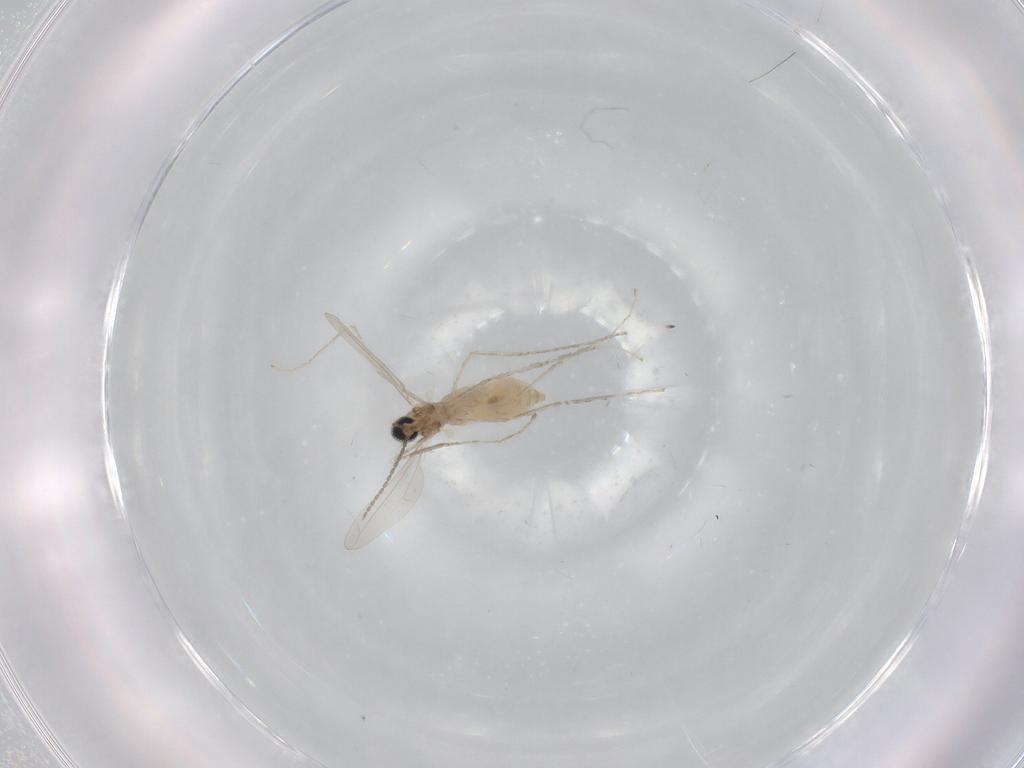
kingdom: Animalia
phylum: Arthropoda
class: Insecta
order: Diptera
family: Cecidomyiidae
